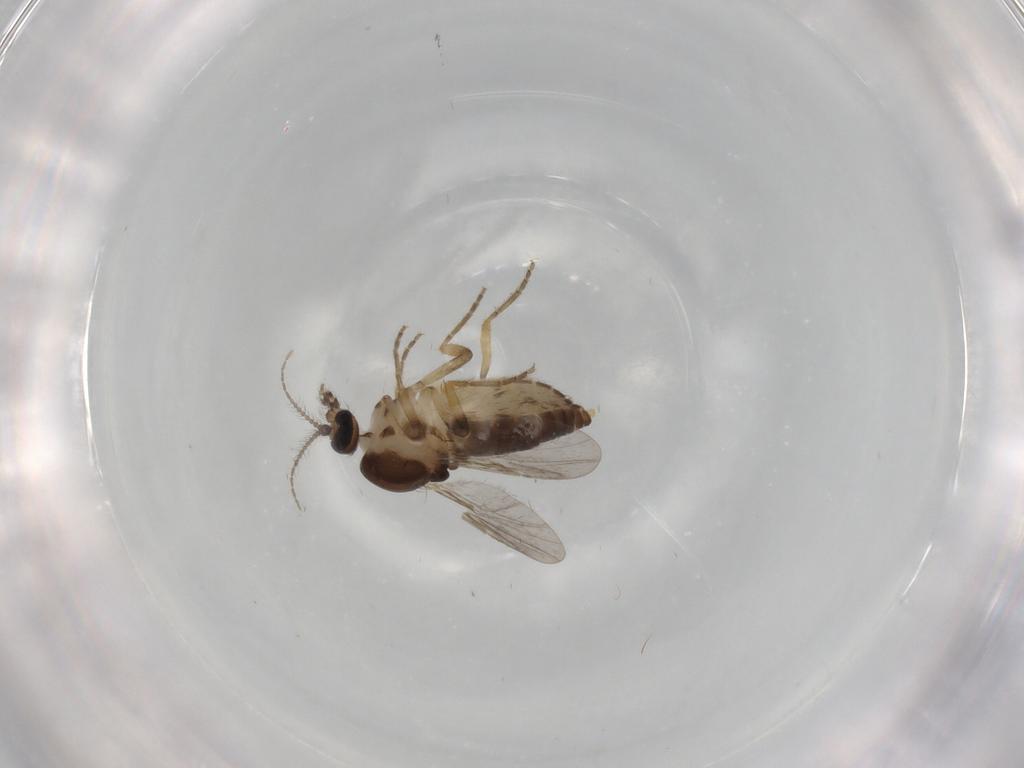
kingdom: Animalia
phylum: Arthropoda
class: Insecta
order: Diptera
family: Ceratopogonidae
